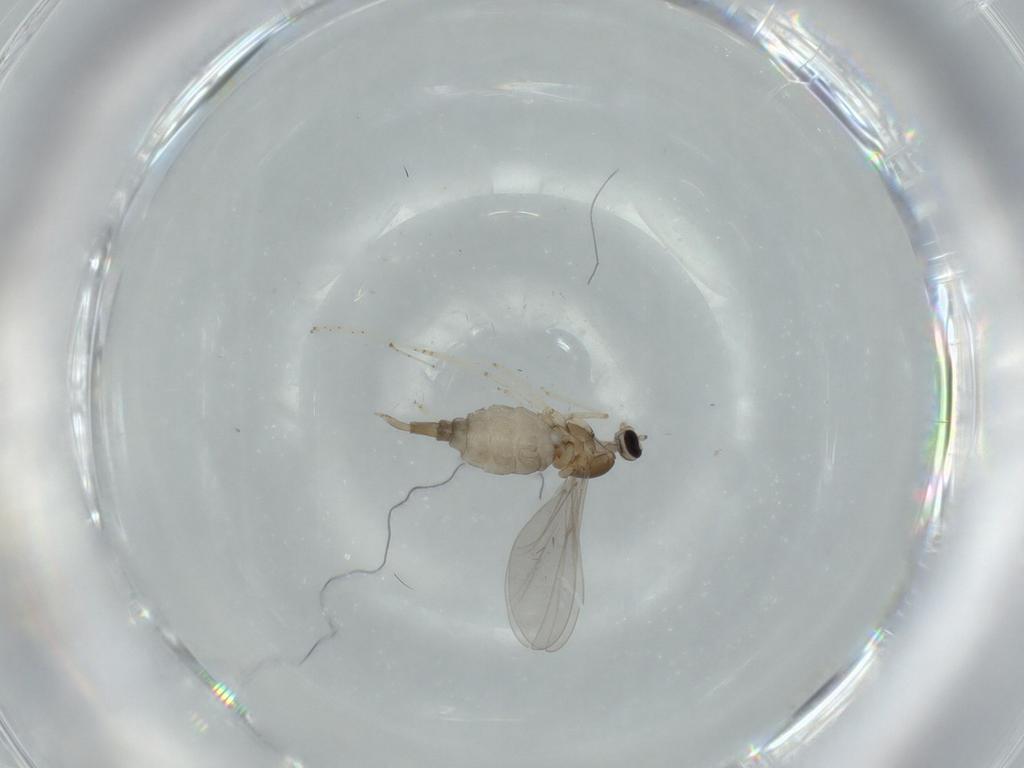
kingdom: Animalia
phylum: Arthropoda
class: Insecta
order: Diptera
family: Cecidomyiidae
